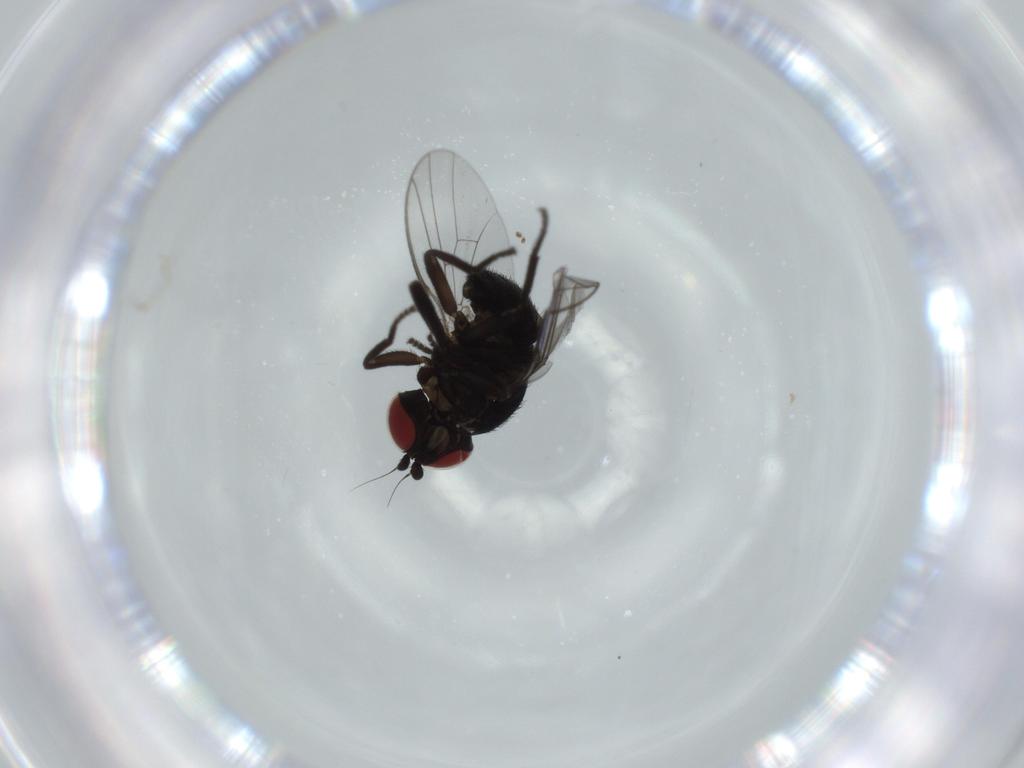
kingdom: Animalia
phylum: Arthropoda
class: Insecta
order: Diptera
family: Agromyzidae
